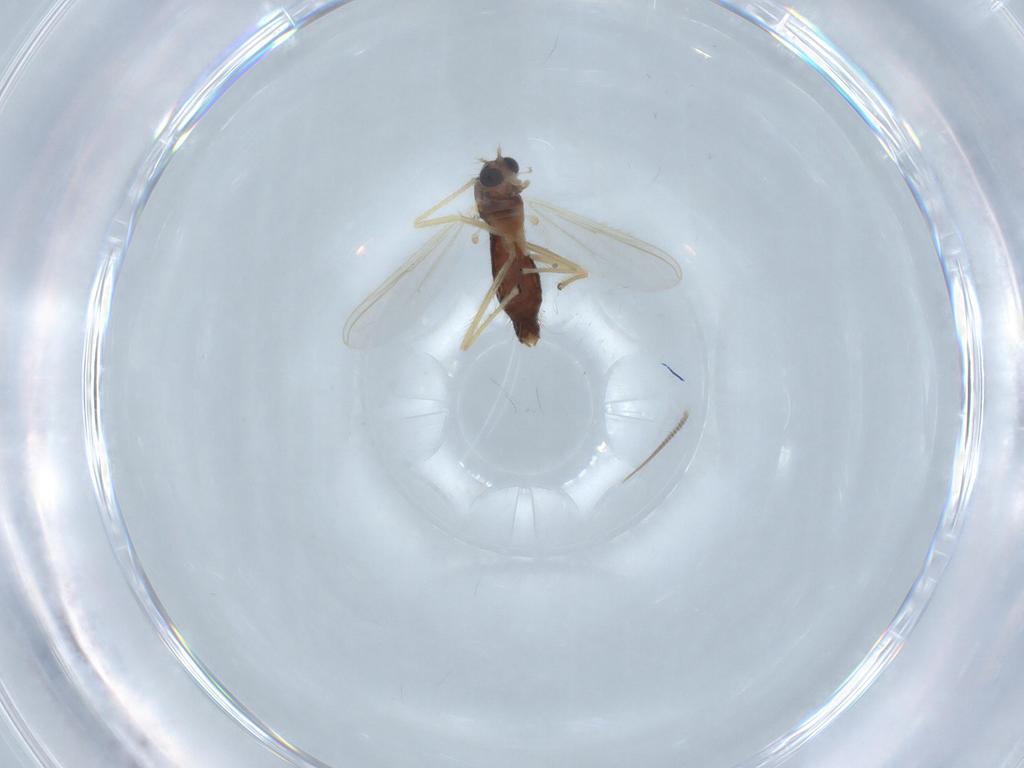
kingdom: Animalia
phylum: Arthropoda
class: Insecta
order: Diptera
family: Chironomidae
